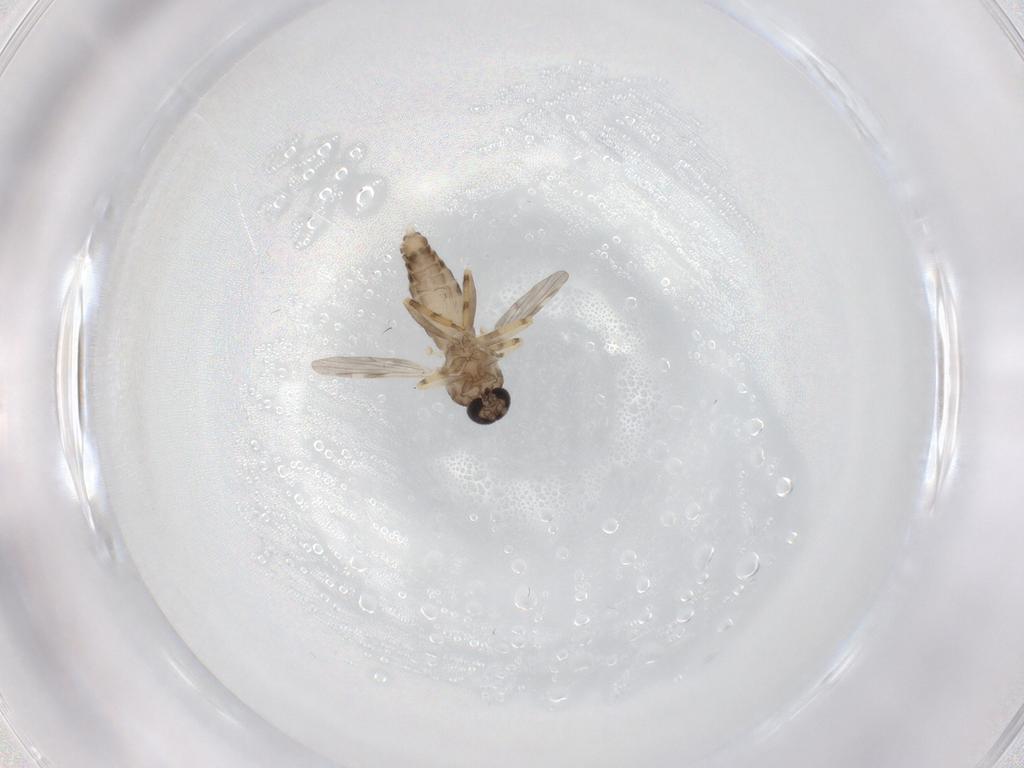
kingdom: Animalia
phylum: Arthropoda
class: Insecta
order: Diptera
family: Ceratopogonidae
